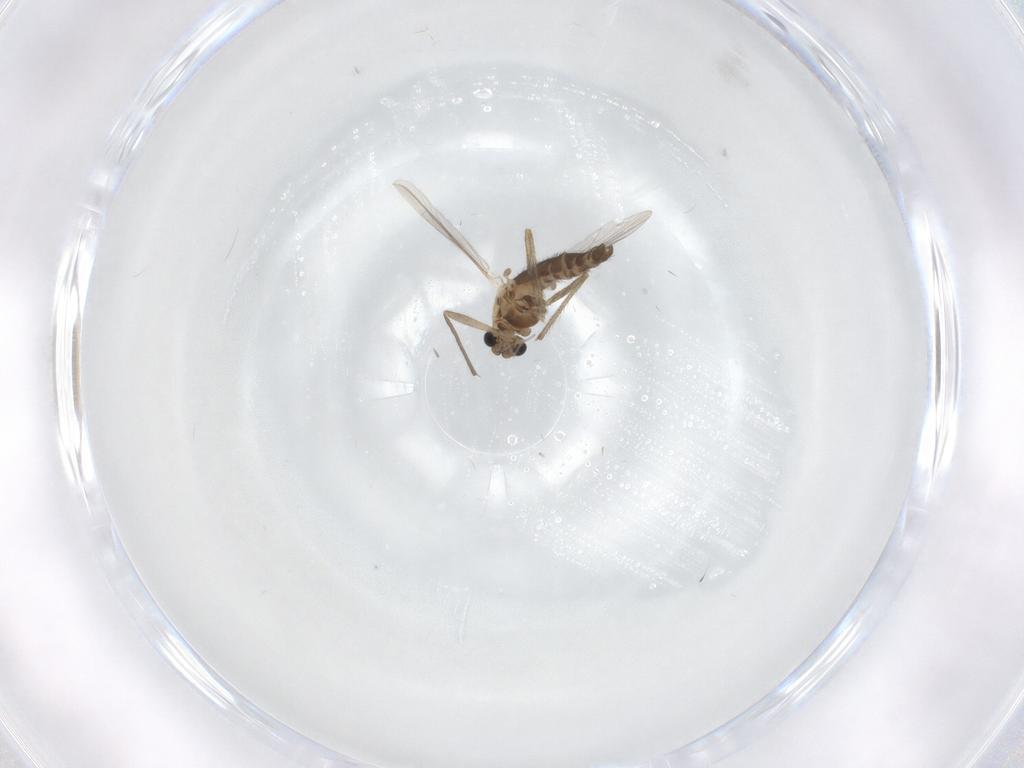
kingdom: Animalia
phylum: Arthropoda
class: Insecta
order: Diptera
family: Chironomidae
